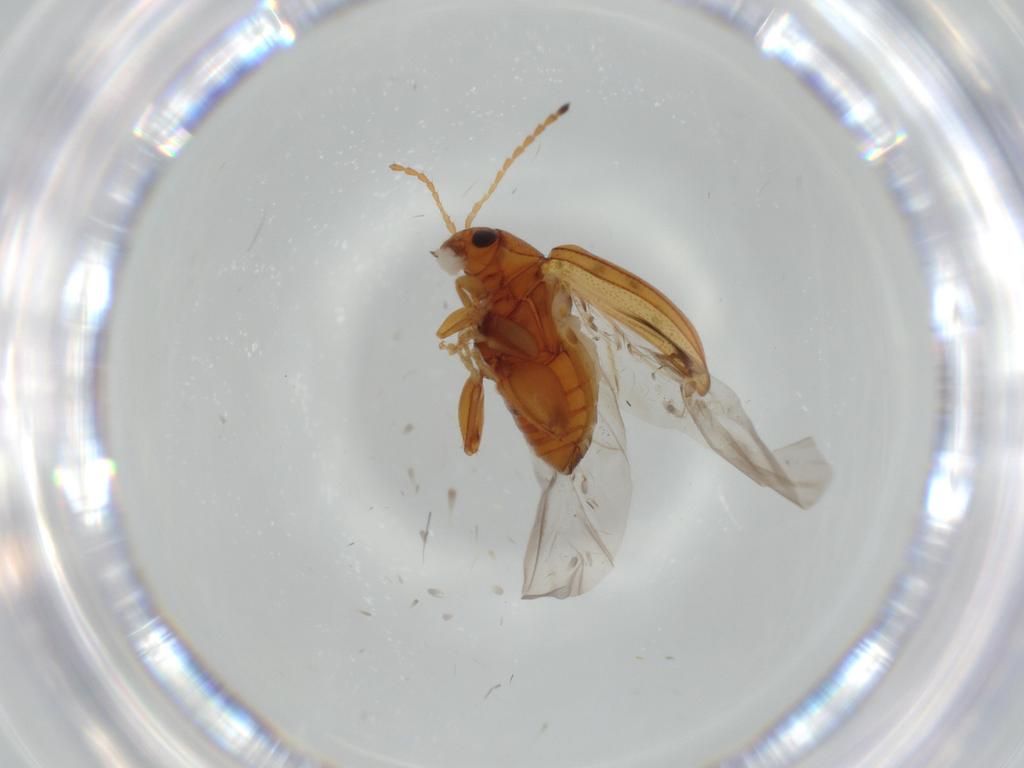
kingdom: Animalia
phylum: Arthropoda
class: Insecta
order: Coleoptera
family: Chrysomelidae
